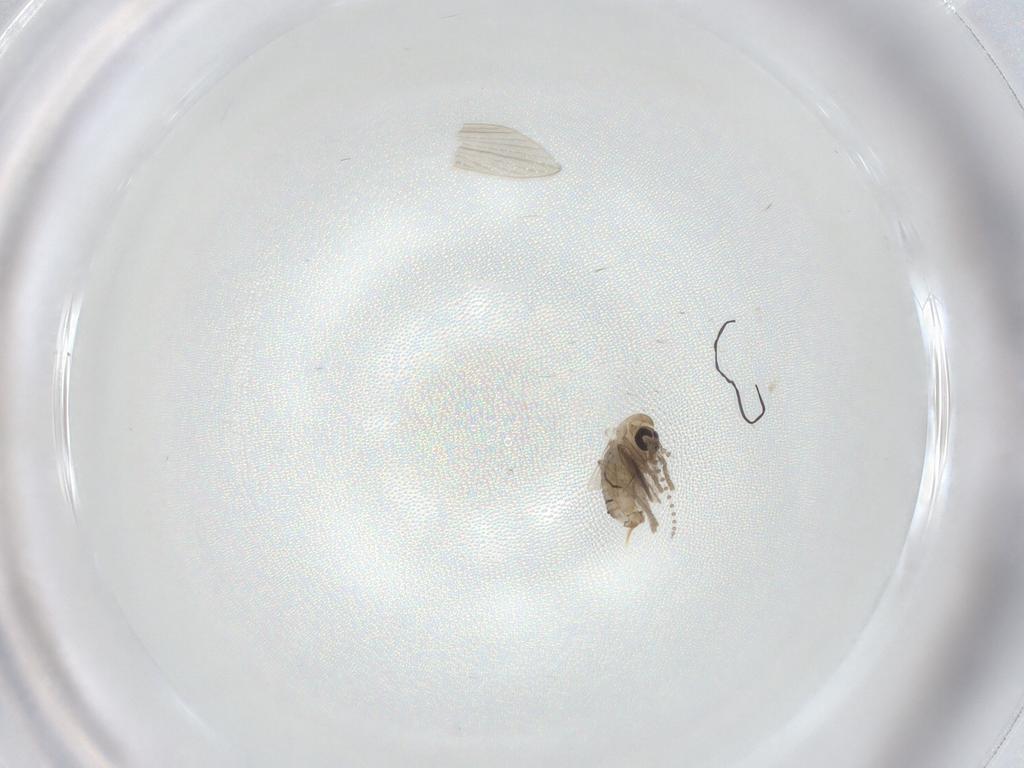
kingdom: Animalia
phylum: Arthropoda
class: Insecta
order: Diptera
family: Psychodidae
